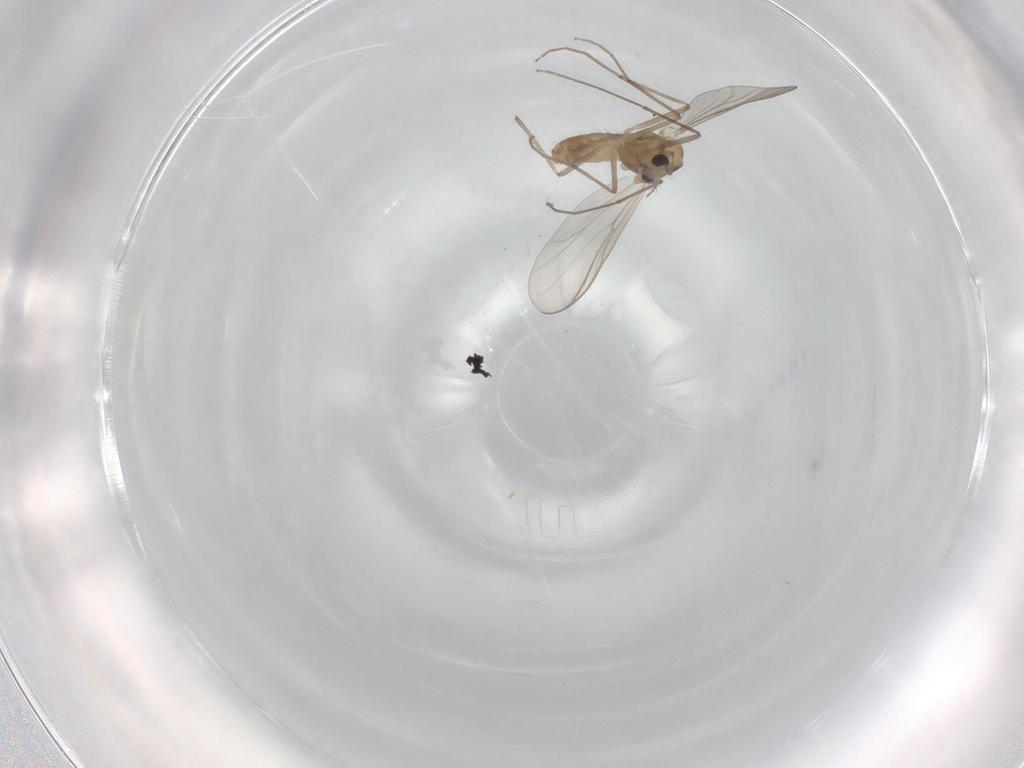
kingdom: Animalia
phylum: Arthropoda
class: Insecta
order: Diptera
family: Chironomidae
